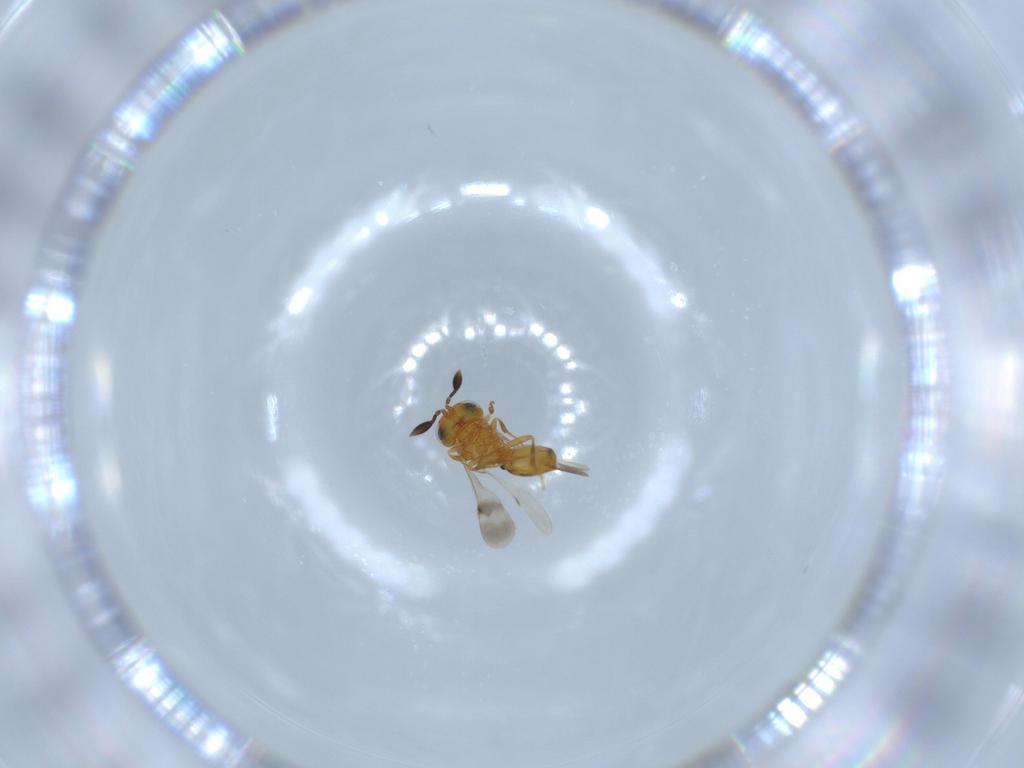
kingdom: Animalia
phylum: Arthropoda
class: Insecta
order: Hymenoptera
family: Scelionidae
